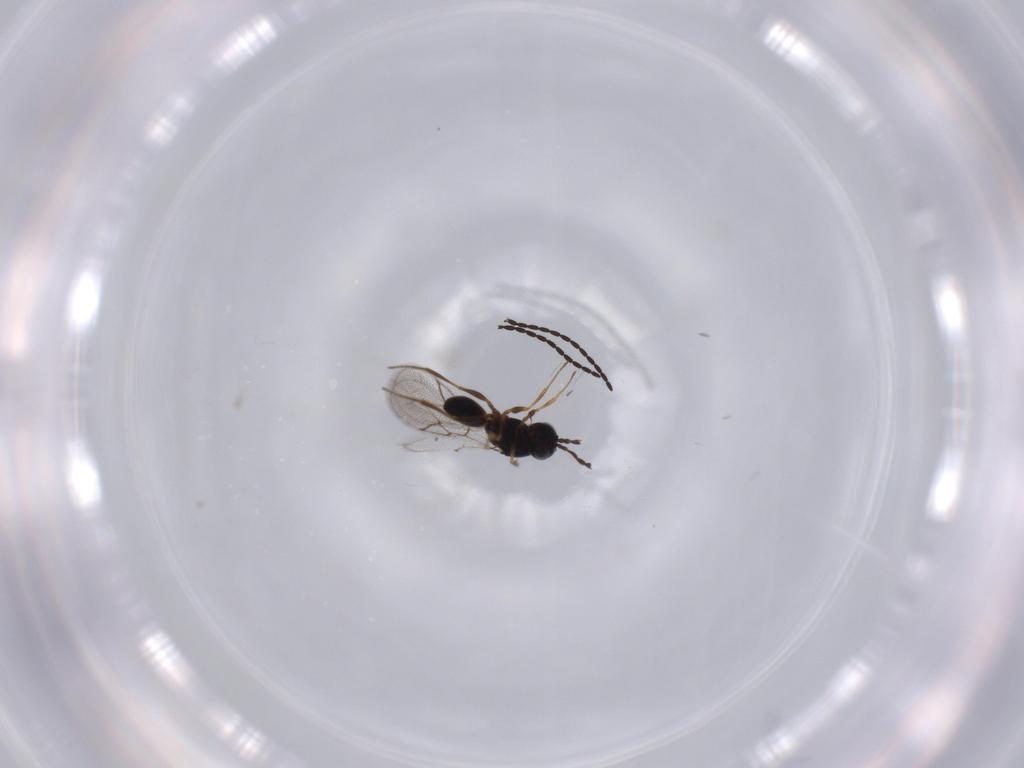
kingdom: Animalia
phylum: Arthropoda
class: Insecta
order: Hymenoptera
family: Figitidae
